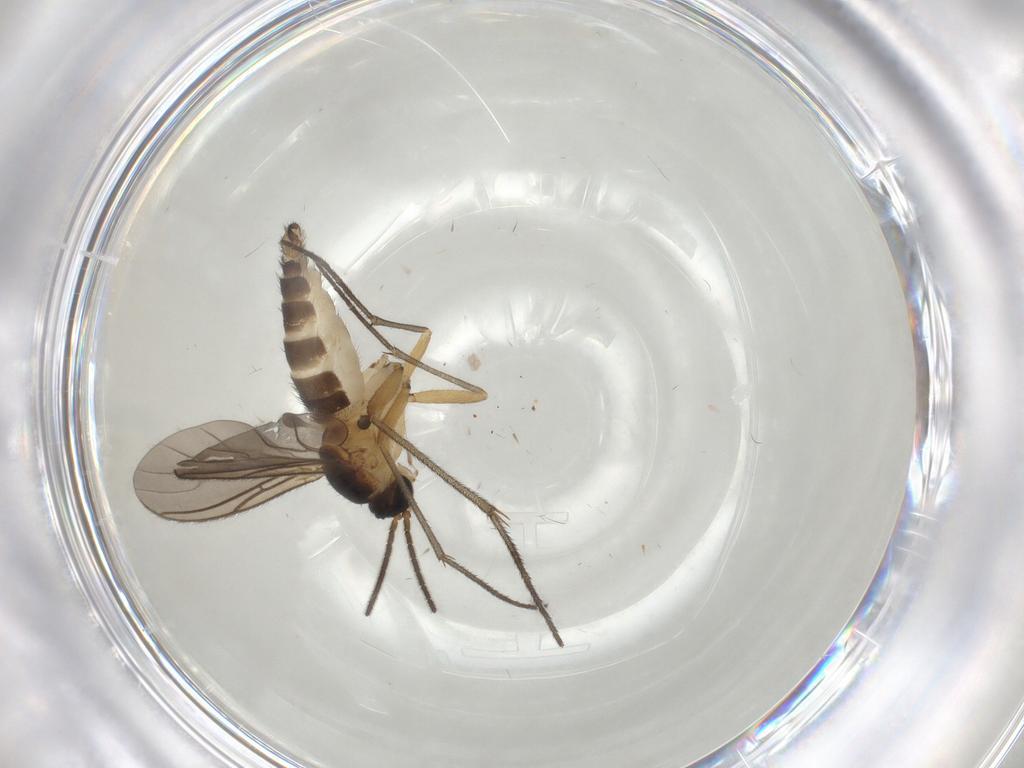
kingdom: Animalia
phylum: Arthropoda
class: Insecta
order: Diptera
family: Sciaridae
